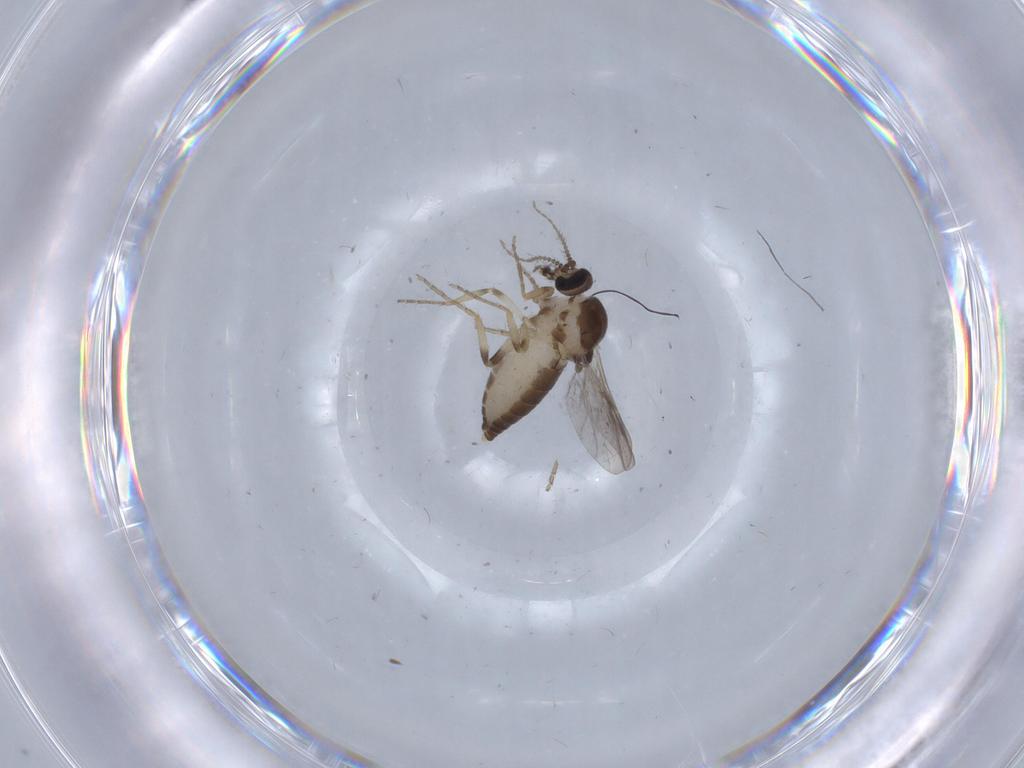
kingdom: Animalia
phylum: Arthropoda
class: Insecta
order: Diptera
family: Ceratopogonidae
